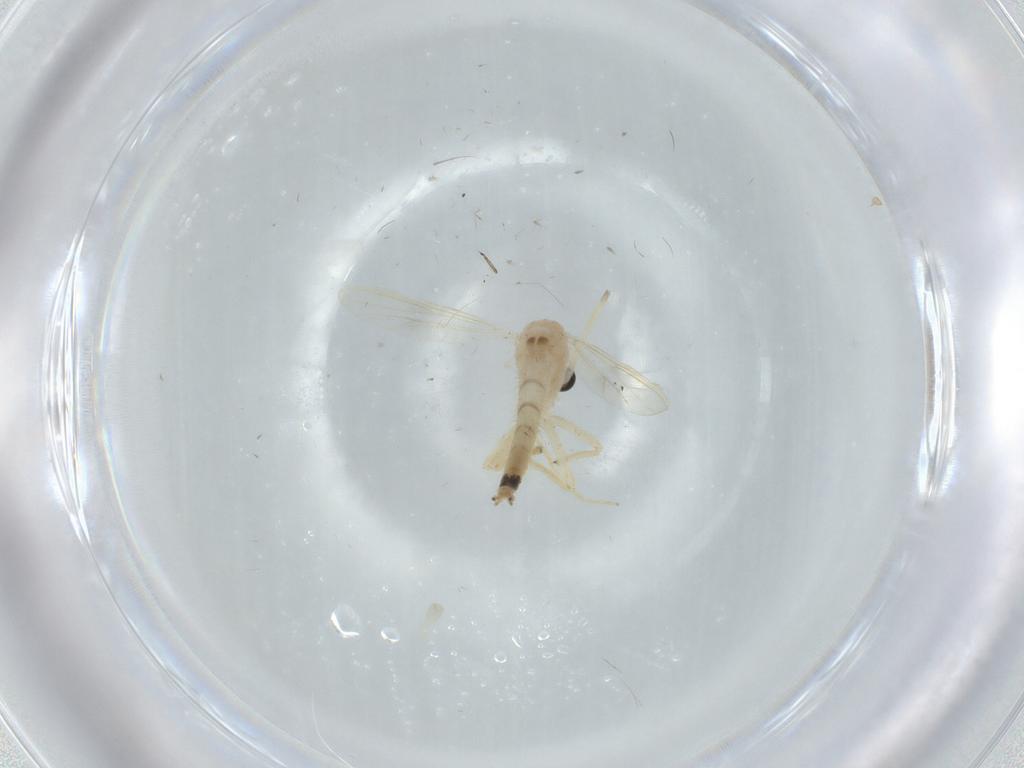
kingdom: Animalia
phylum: Arthropoda
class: Insecta
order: Diptera
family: Chironomidae
